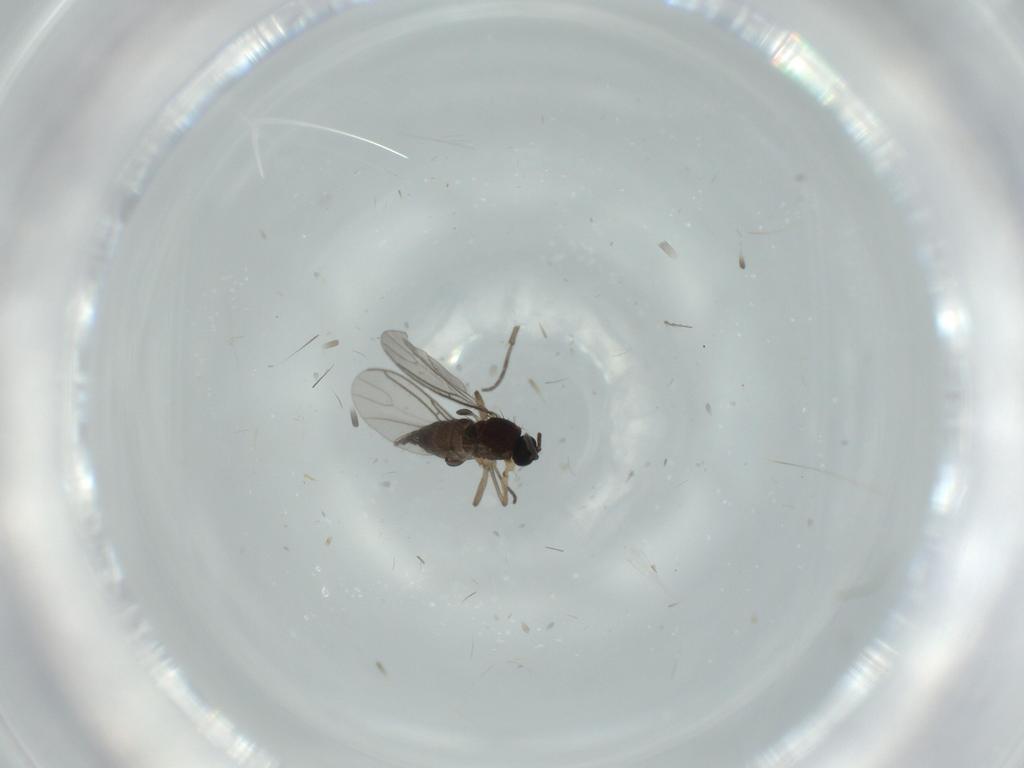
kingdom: Animalia
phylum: Arthropoda
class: Insecta
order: Diptera
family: Sciaridae
